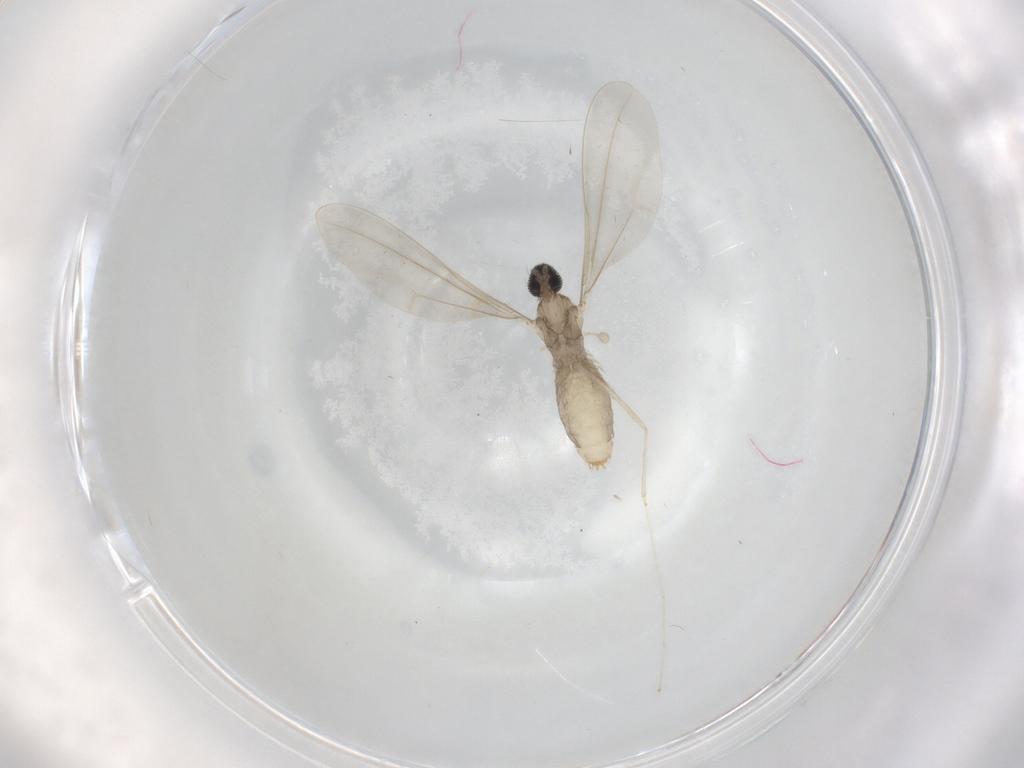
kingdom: Animalia
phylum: Arthropoda
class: Insecta
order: Diptera
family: Cecidomyiidae
